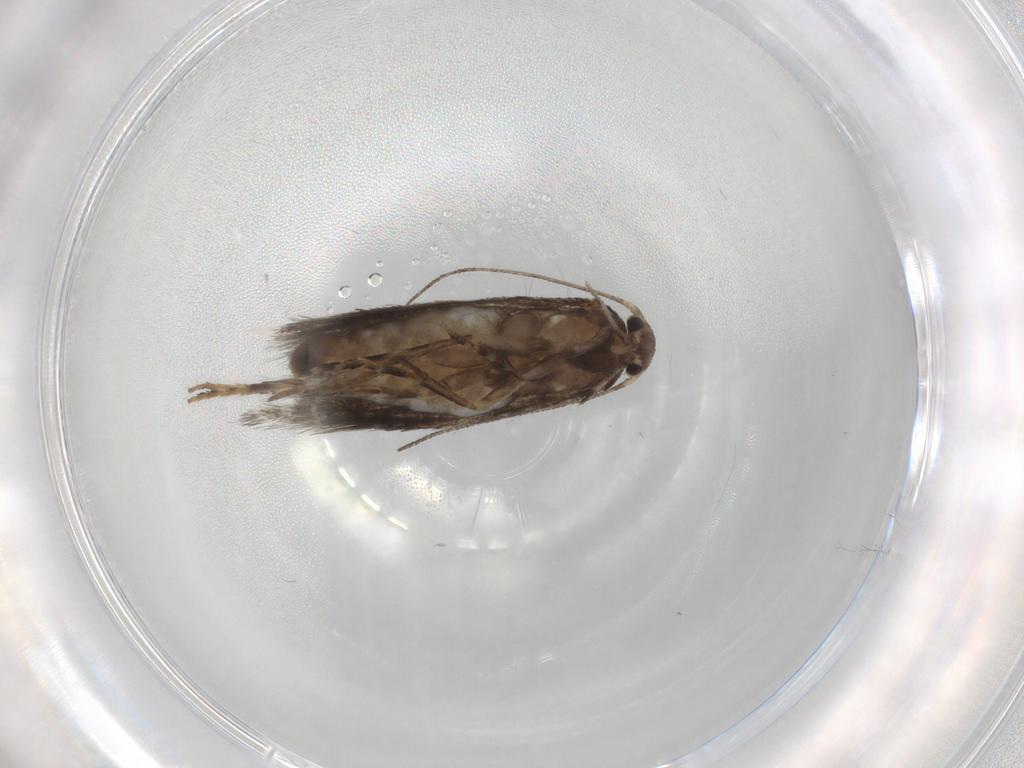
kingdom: Animalia
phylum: Arthropoda
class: Insecta
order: Lepidoptera
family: Elachistidae
